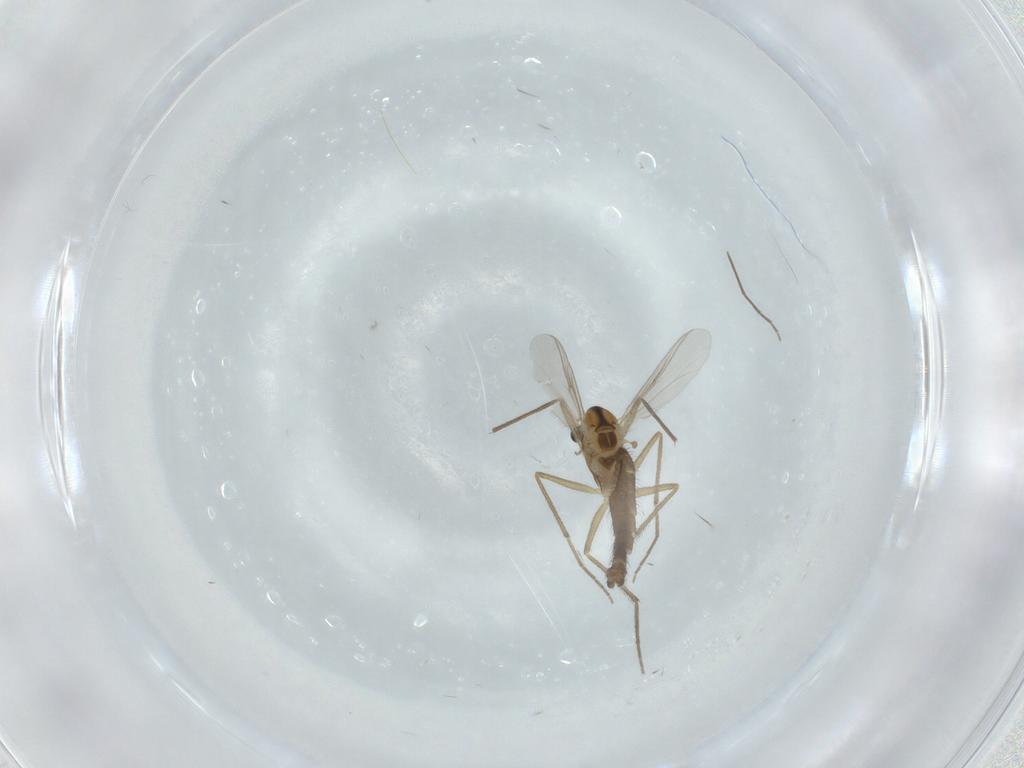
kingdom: Animalia
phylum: Arthropoda
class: Insecta
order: Diptera
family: Chironomidae
